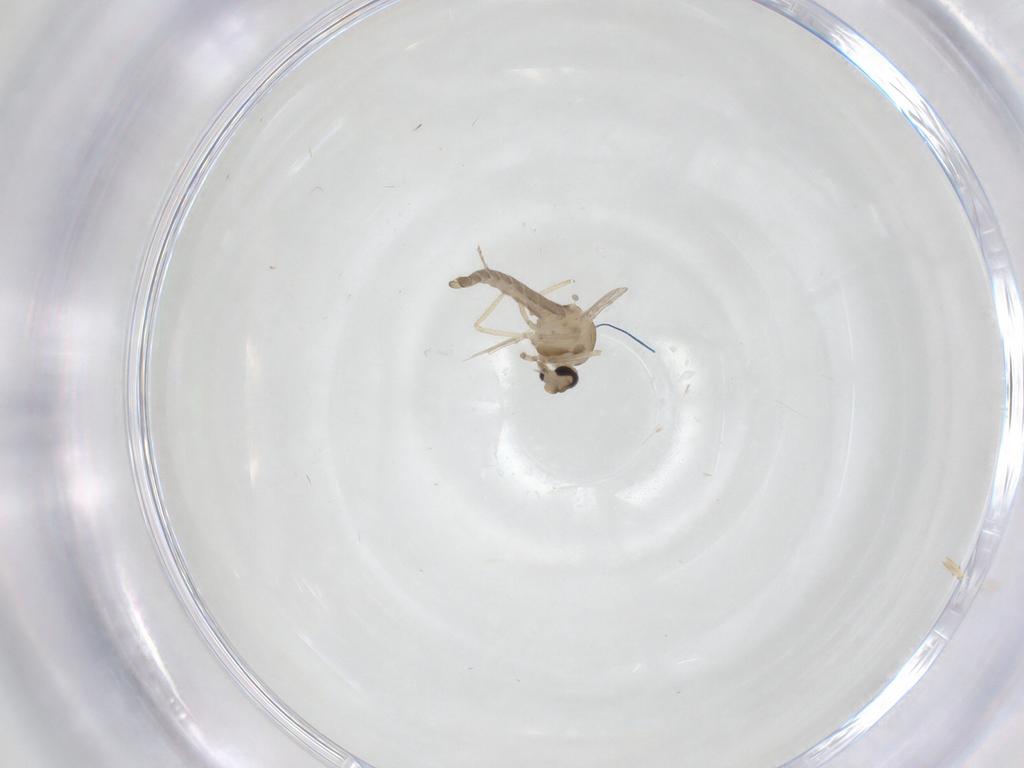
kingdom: Animalia
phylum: Arthropoda
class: Insecta
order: Diptera
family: Ceratopogonidae
